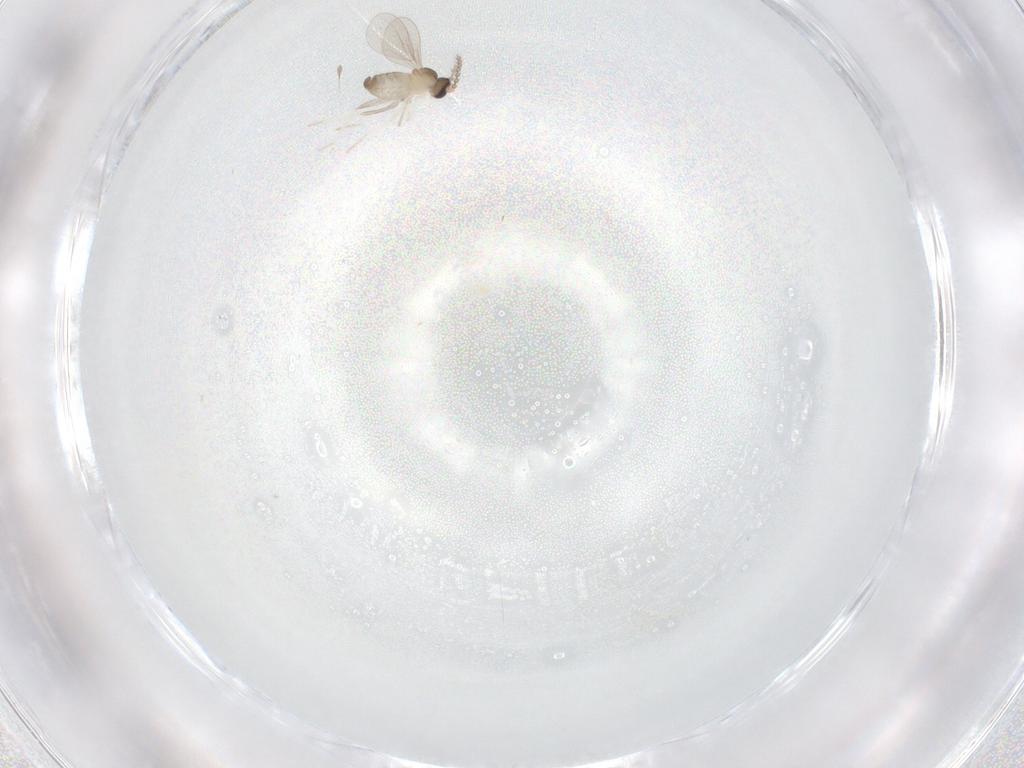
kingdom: Animalia
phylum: Arthropoda
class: Insecta
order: Diptera
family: Cecidomyiidae
